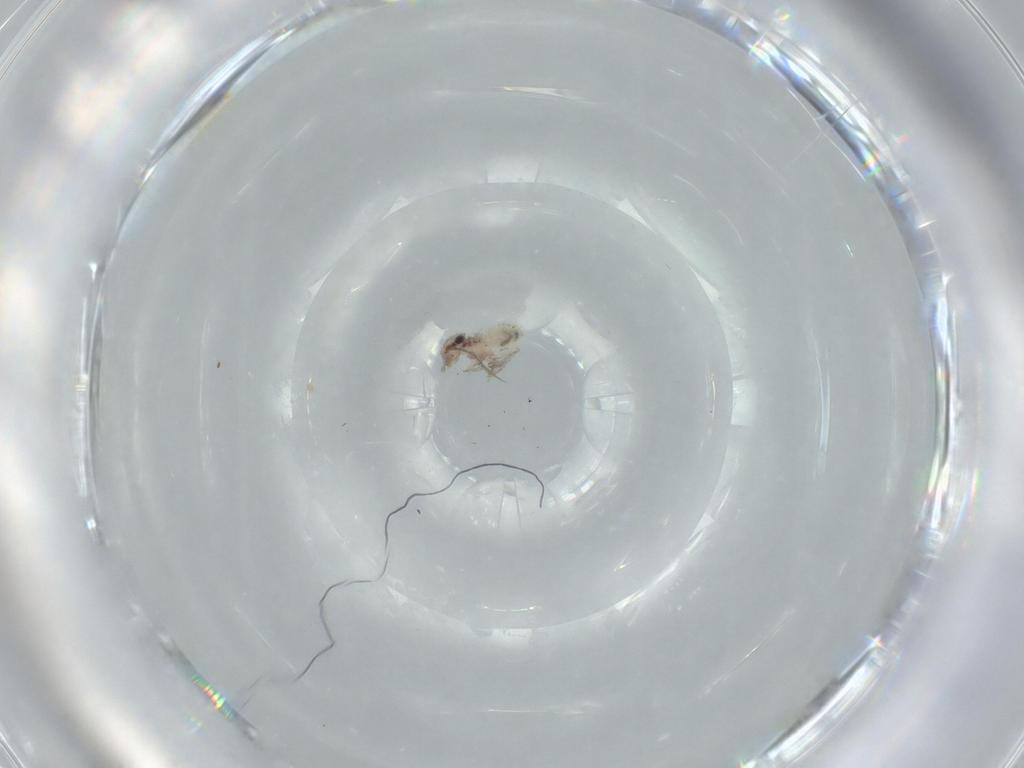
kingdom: Animalia
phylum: Arthropoda
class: Insecta
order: Psocodea
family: Lepidopsocidae
